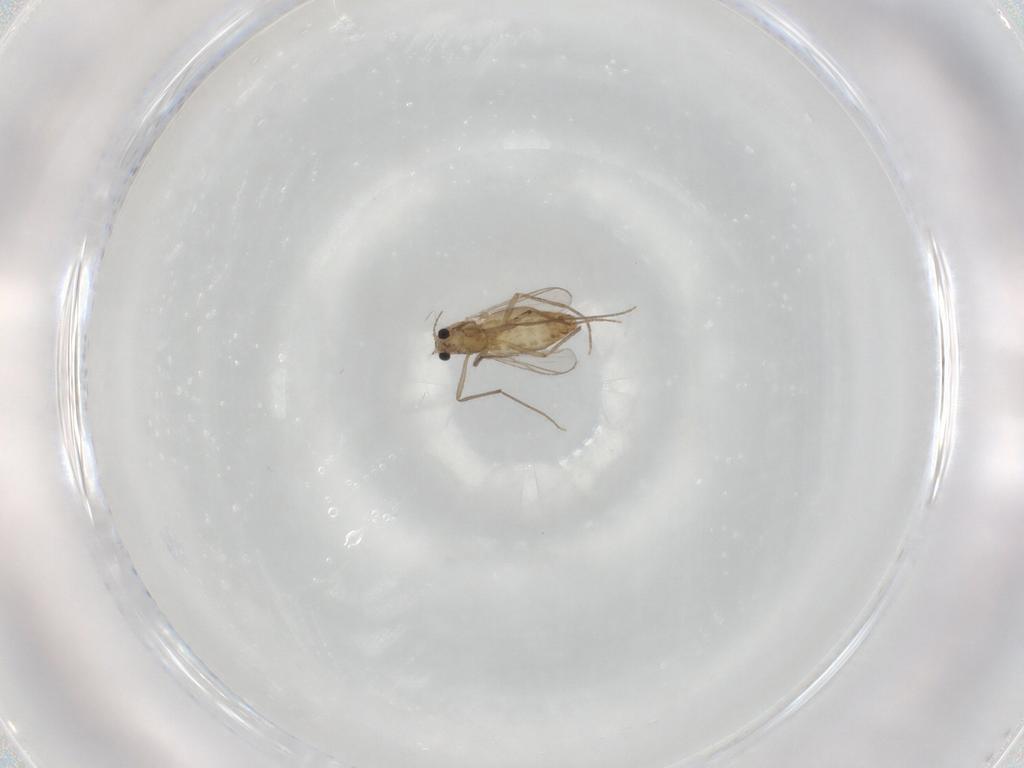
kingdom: Animalia
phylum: Arthropoda
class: Insecta
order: Diptera
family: Chironomidae
